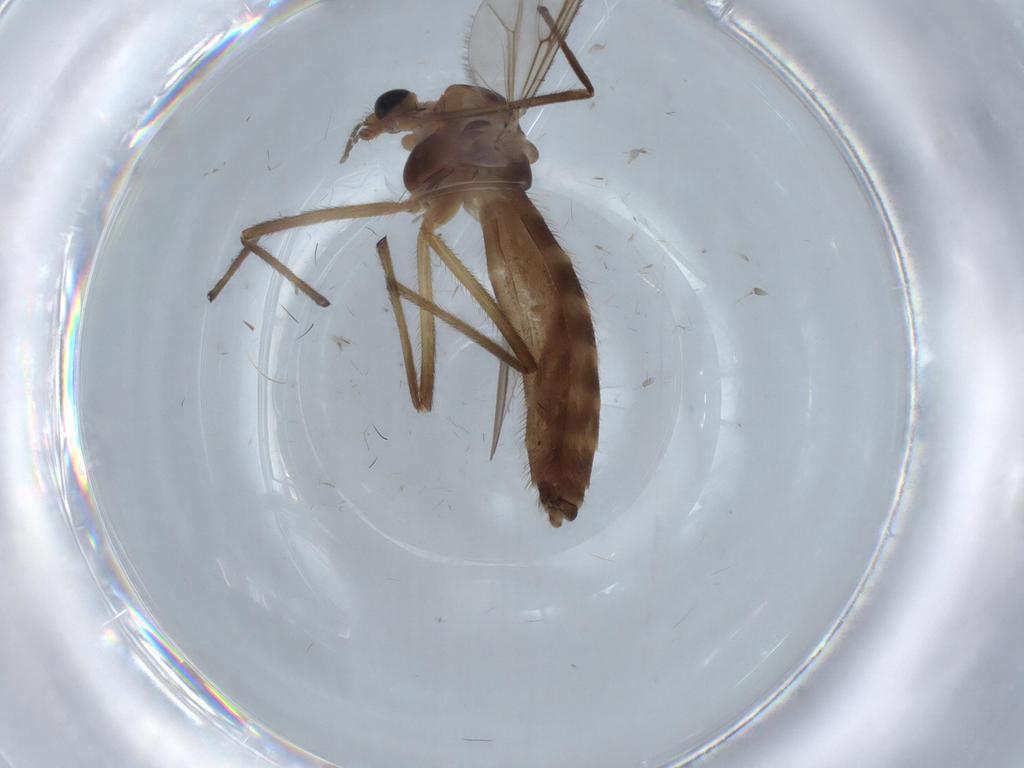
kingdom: Animalia
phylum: Arthropoda
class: Insecta
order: Diptera
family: Chironomidae
